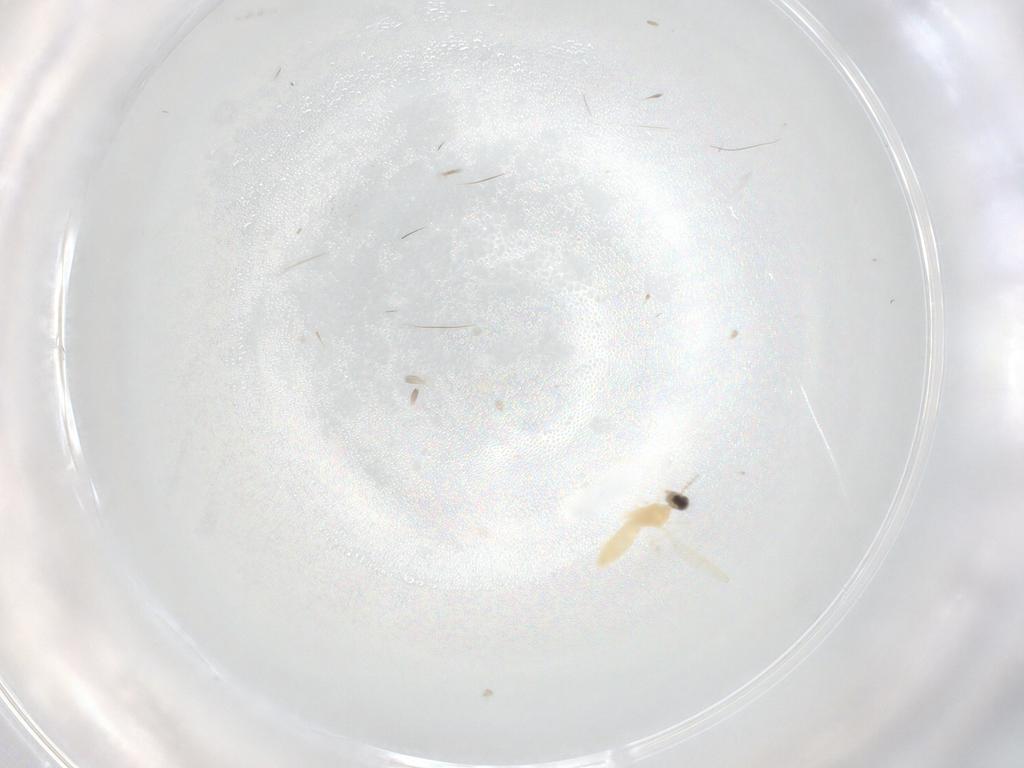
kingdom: Animalia
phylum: Arthropoda
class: Insecta
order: Diptera
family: Cecidomyiidae
